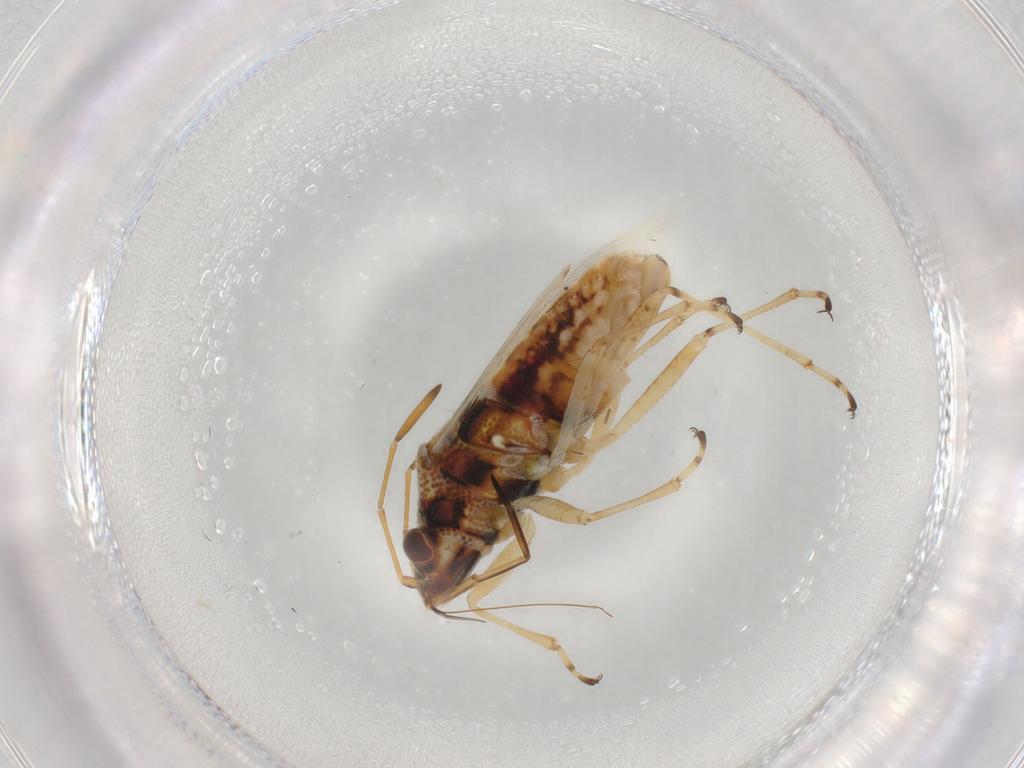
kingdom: Animalia
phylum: Arthropoda
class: Insecta
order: Hemiptera
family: Lygaeidae
